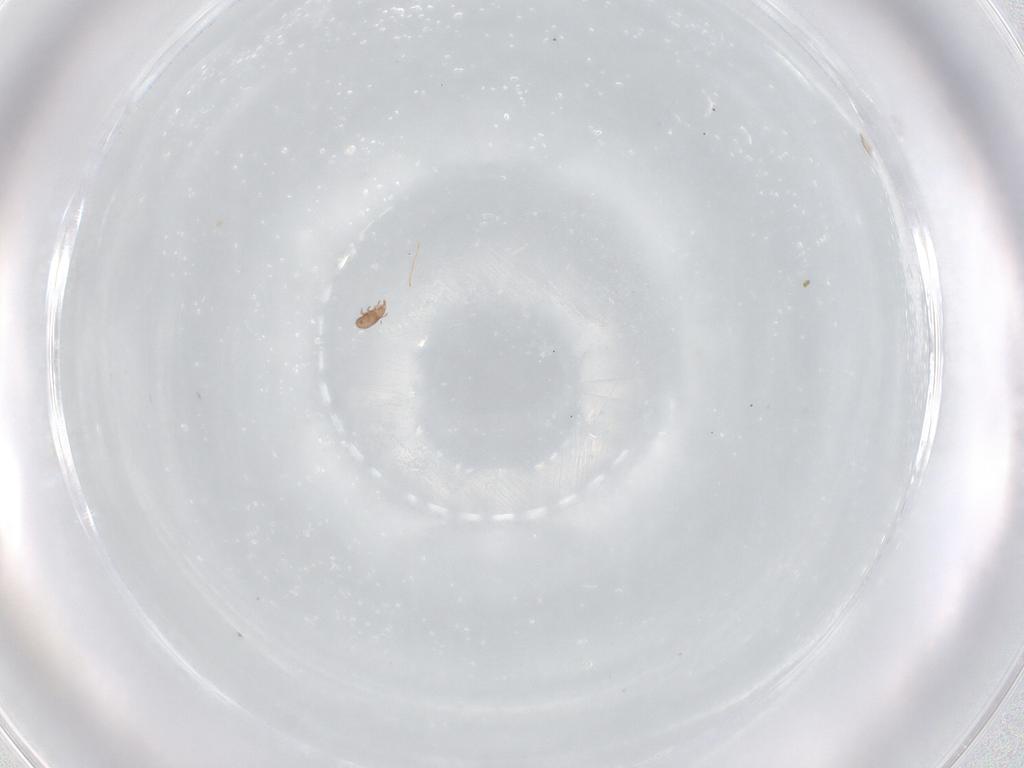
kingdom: Animalia
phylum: Arthropoda
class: Arachnida
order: Sarcoptiformes
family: Eremaeidae
